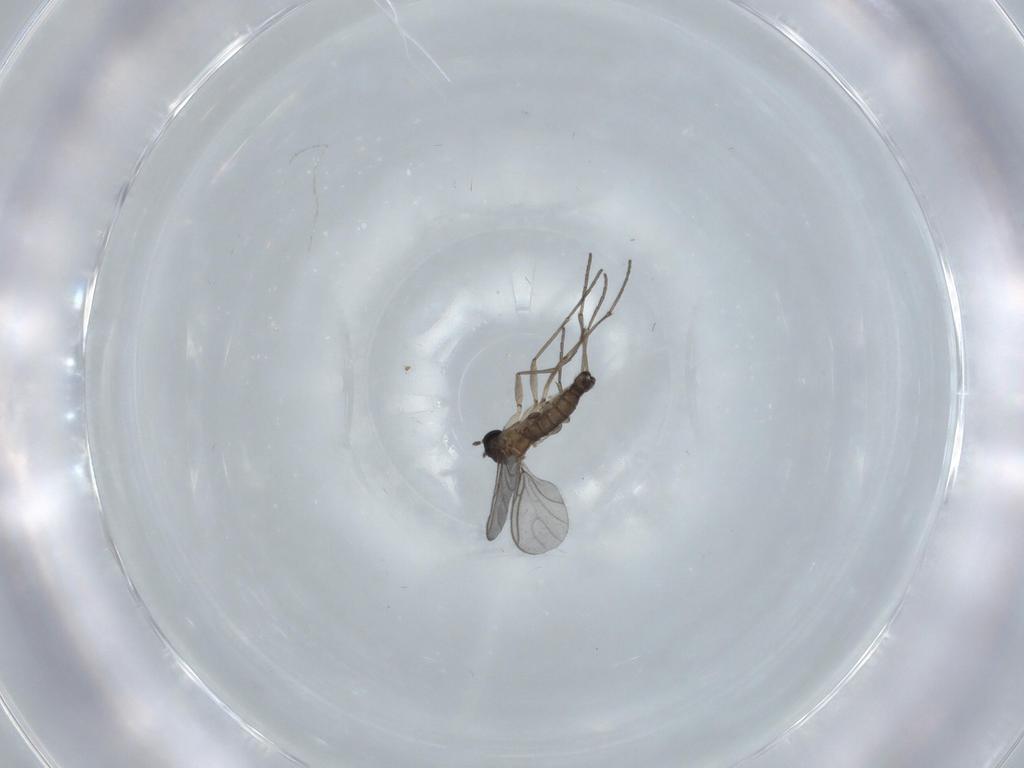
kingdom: Animalia
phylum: Arthropoda
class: Insecta
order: Diptera
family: Sciaridae
